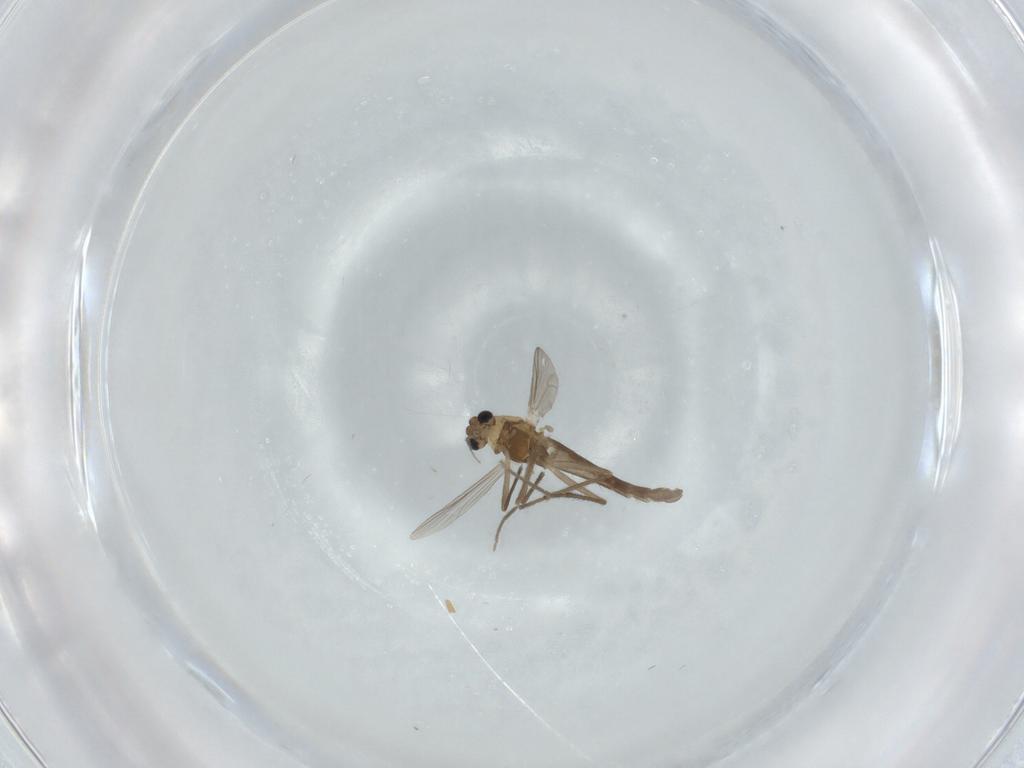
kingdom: Animalia
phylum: Arthropoda
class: Insecta
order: Diptera
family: Chironomidae
